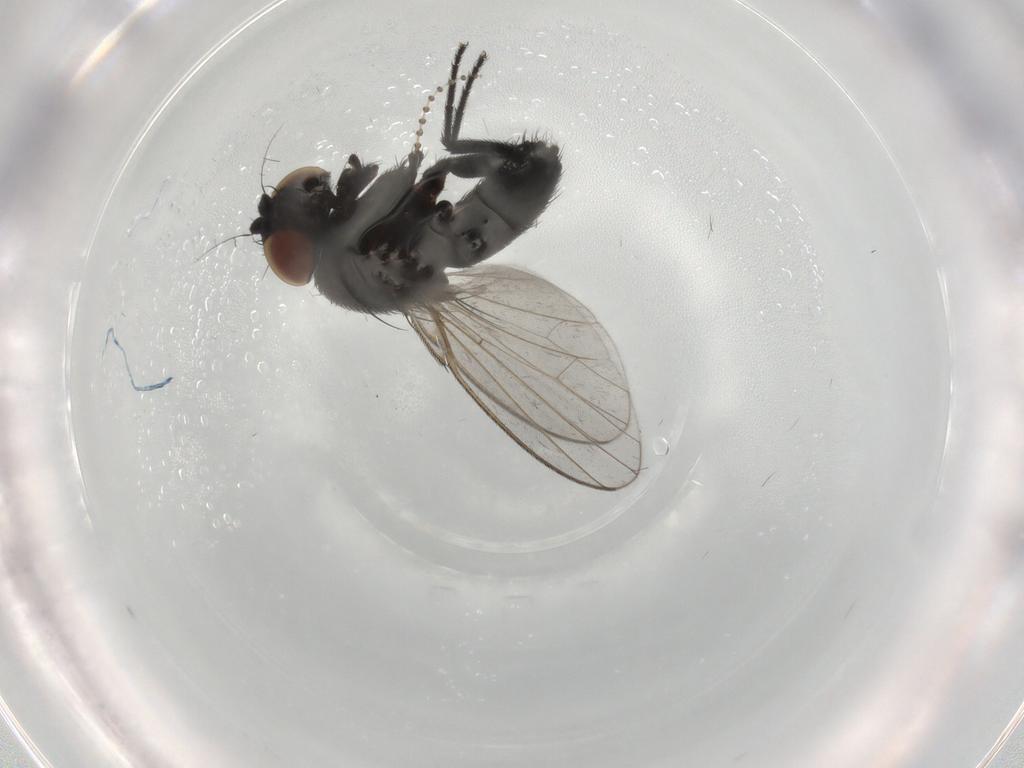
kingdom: Animalia
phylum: Arthropoda
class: Insecta
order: Diptera
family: Milichiidae
